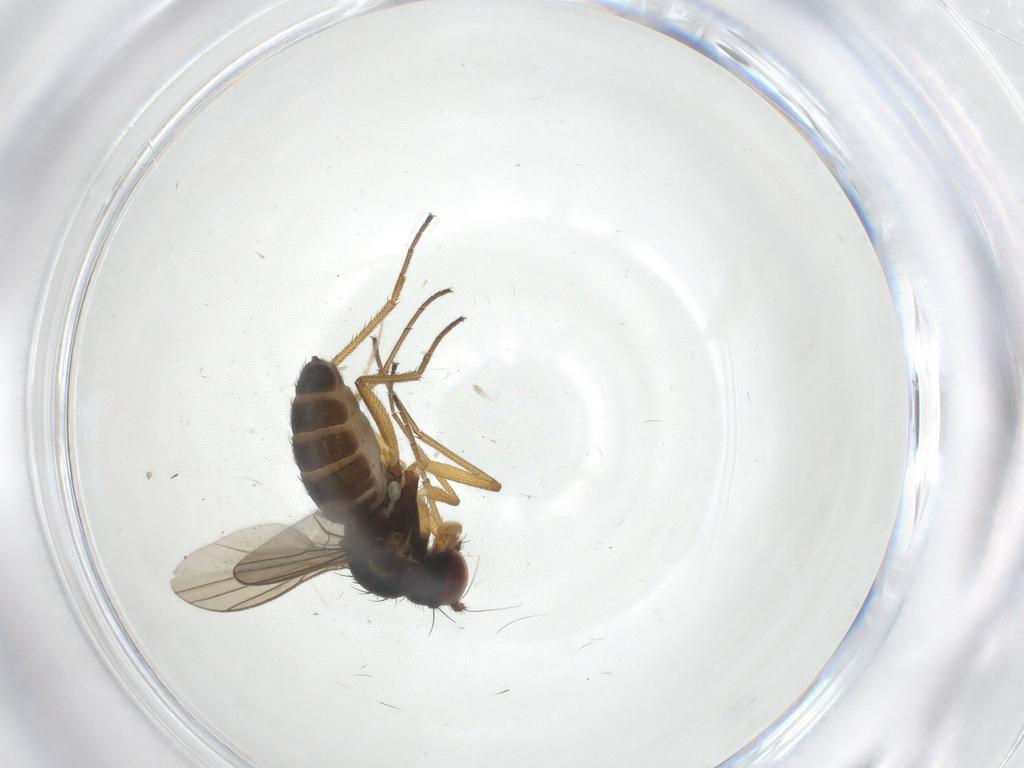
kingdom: Animalia
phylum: Arthropoda
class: Insecta
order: Diptera
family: Dolichopodidae
